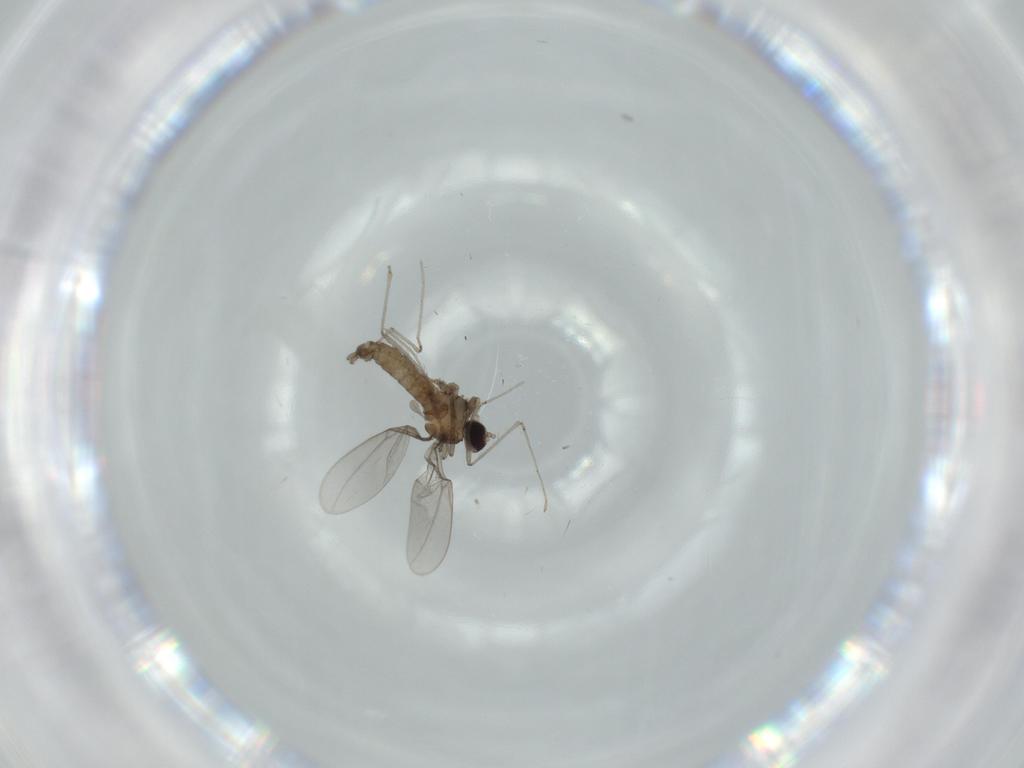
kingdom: Animalia
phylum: Arthropoda
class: Insecta
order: Diptera
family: Cecidomyiidae
